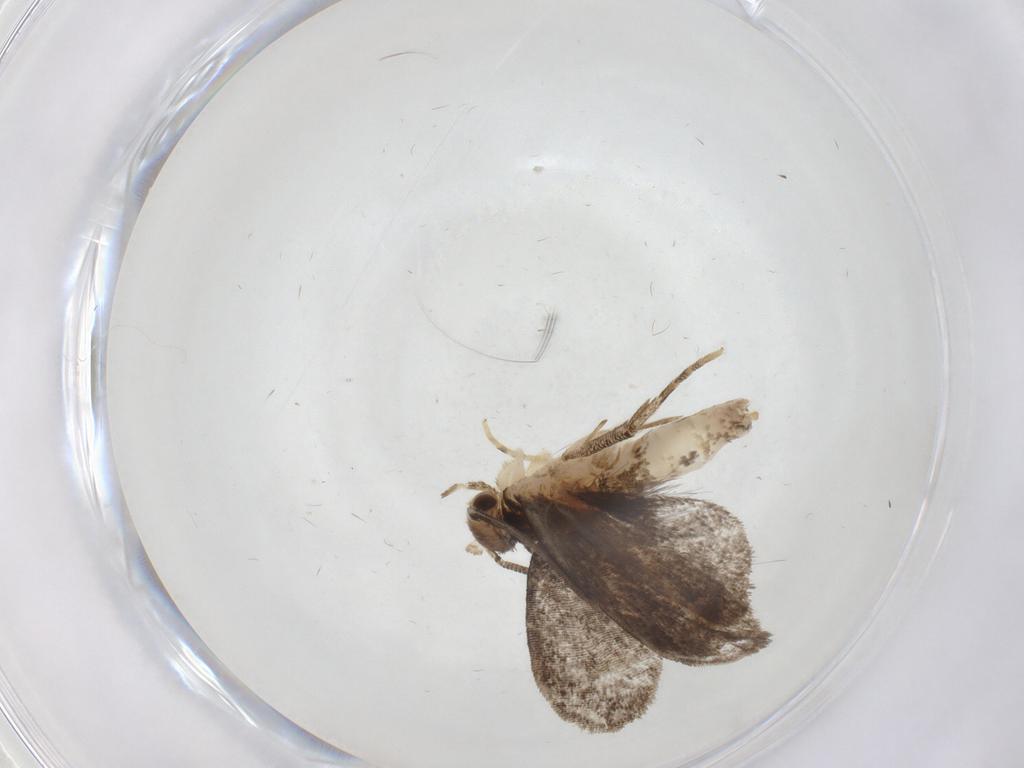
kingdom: Animalia
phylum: Arthropoda
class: Insecta
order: Lepidoptera
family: Dryadaulidae
